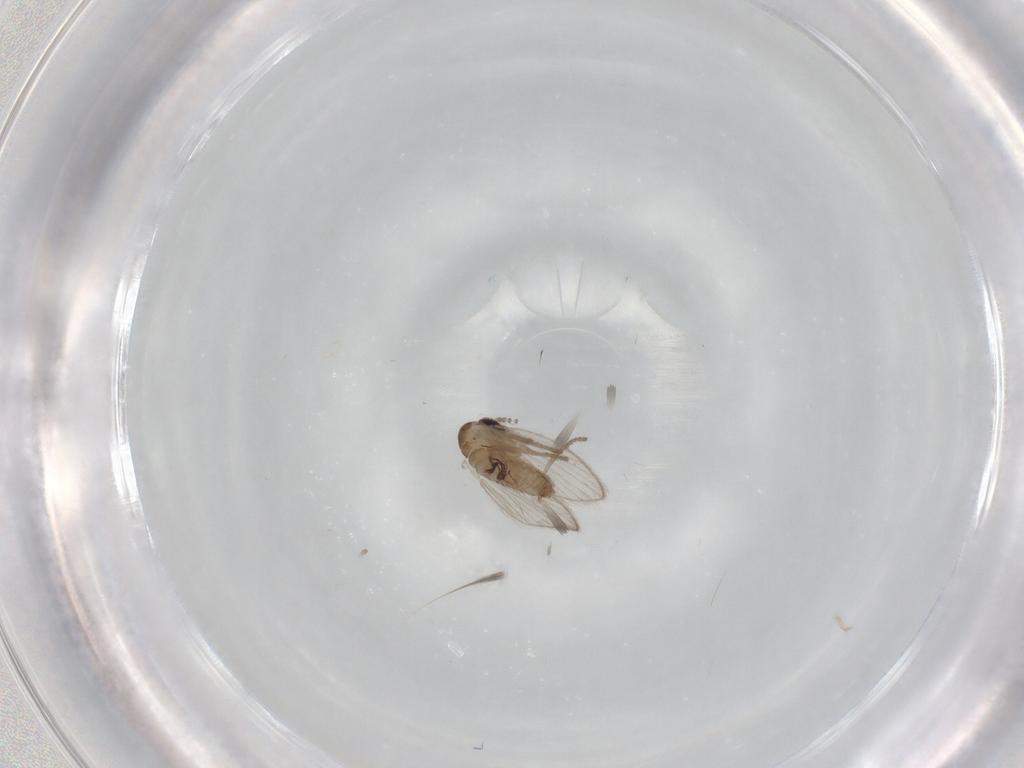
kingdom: Animalia
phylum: Arthropoda
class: Insecta
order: Diptera
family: Psychodidae
